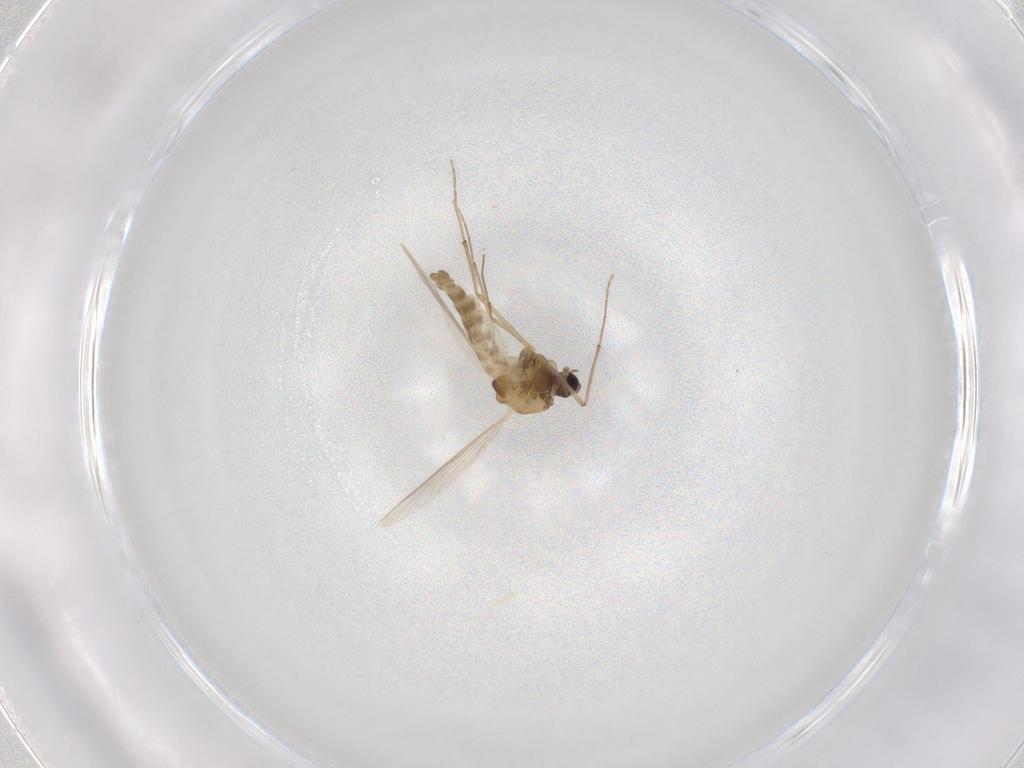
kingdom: Animalia
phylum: Arthropoda
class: Insecta
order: Diptera
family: Chironomidae
